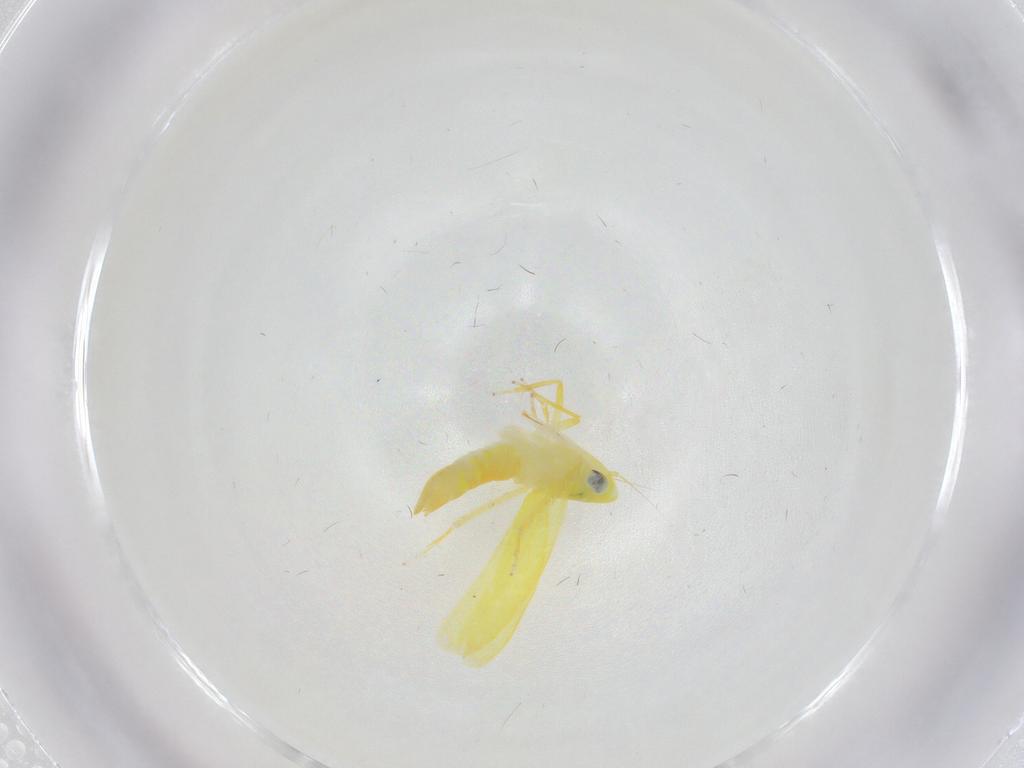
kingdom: Animalia
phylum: Arthropoda
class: Insecta
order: Hemiptera
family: Cicadellidae
